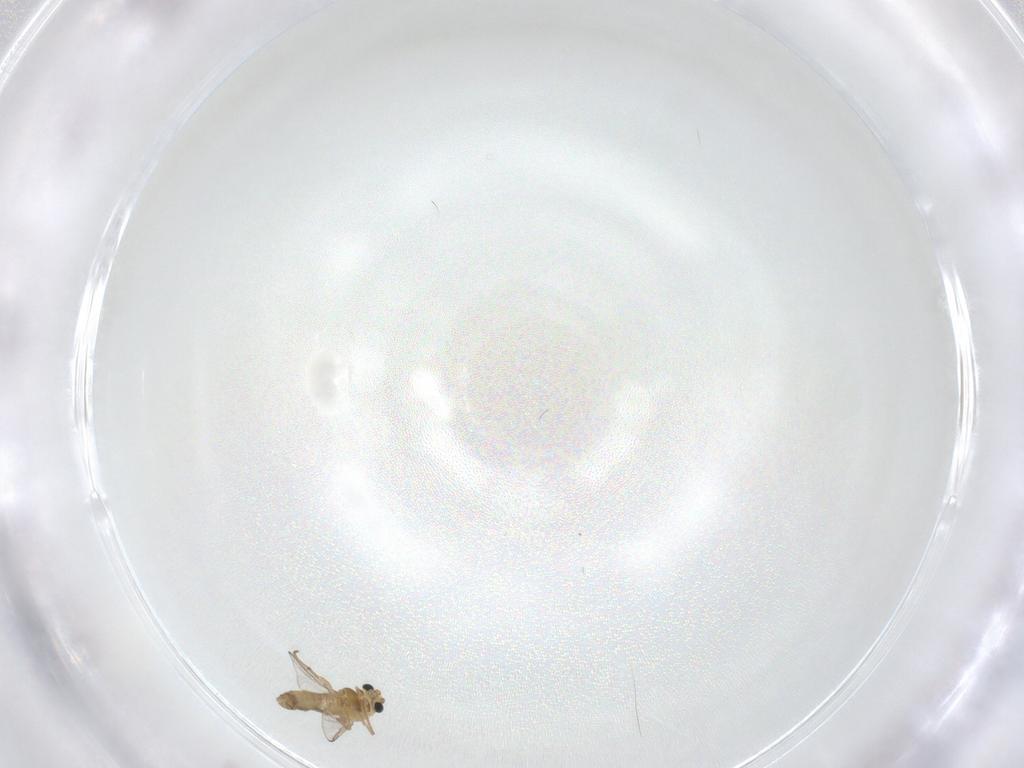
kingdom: Animalia
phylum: Arthropoda
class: Insecta
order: Diptera
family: Chironomidae
